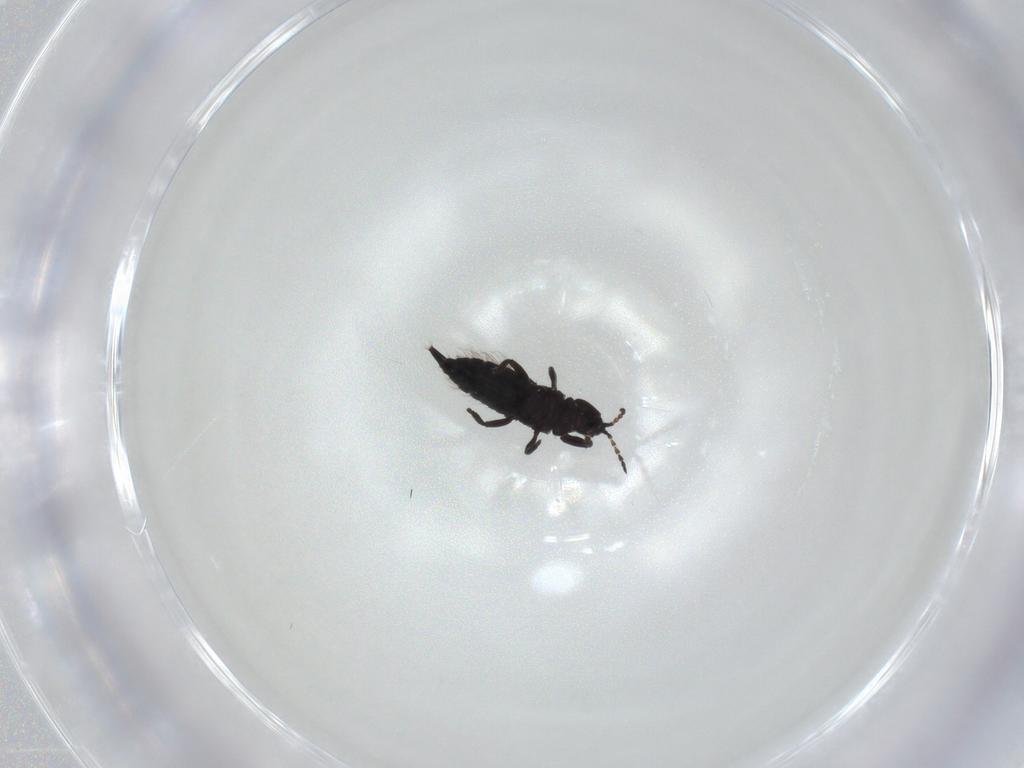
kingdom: Animalia
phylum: Arthropoda
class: Insecta
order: Thysanoptera
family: Phlaeothripidae
